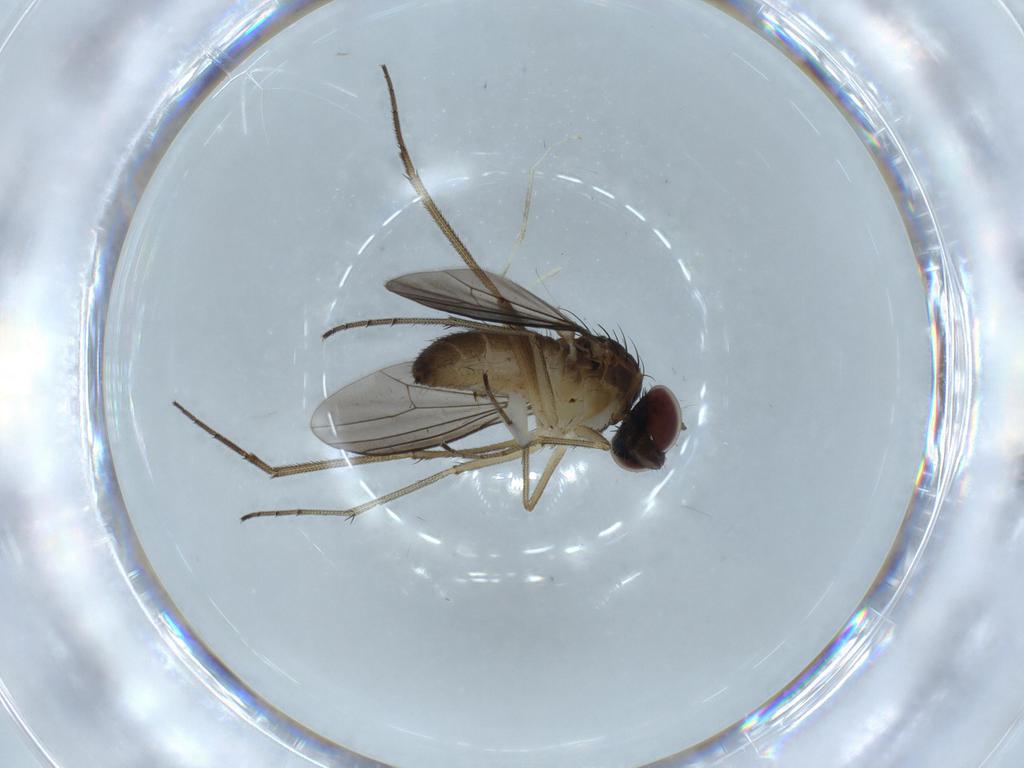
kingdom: Animalia
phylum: Arthropoda
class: Insecta
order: Diptera
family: Dolichopodidae
